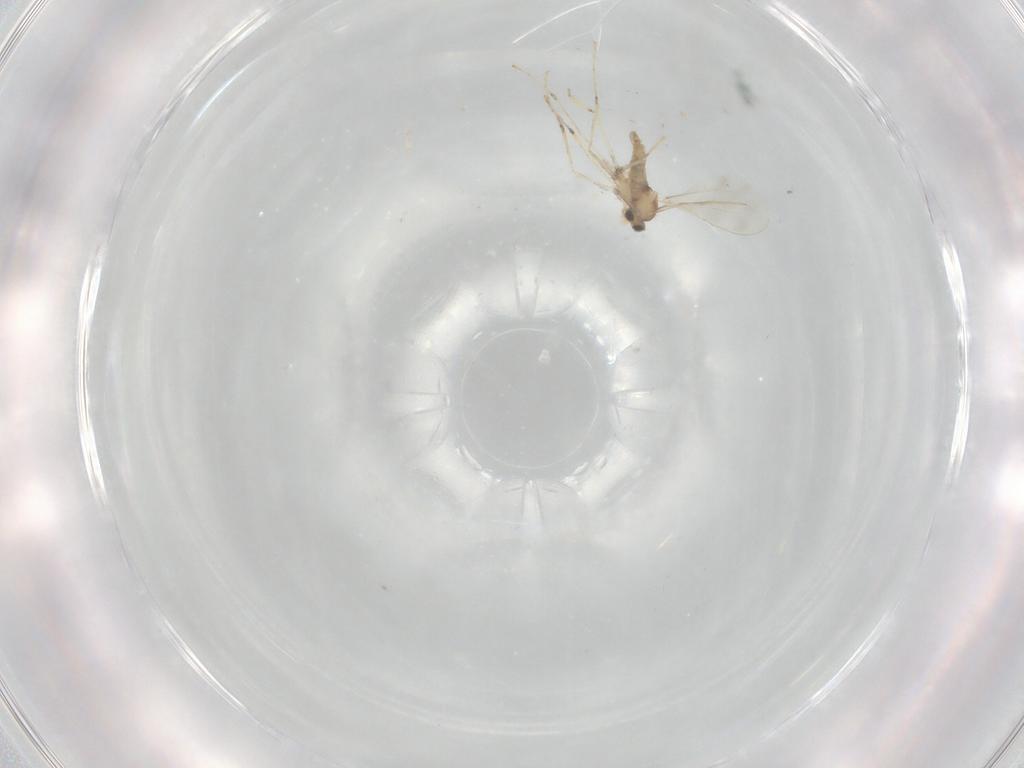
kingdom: Animalia
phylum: Arthropoda
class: Insecta
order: Diptera
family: Cecidomyiidae
